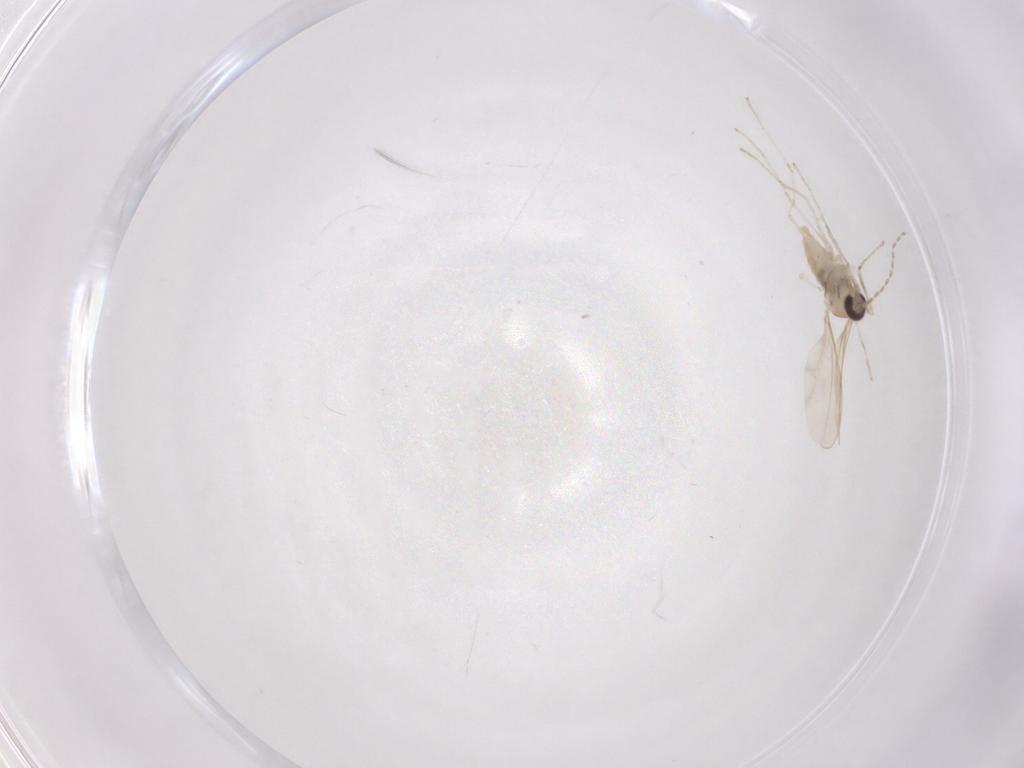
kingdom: Animalia
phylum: Arthropoda
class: Insecta
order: Diptera
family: Cecidomyiidae
